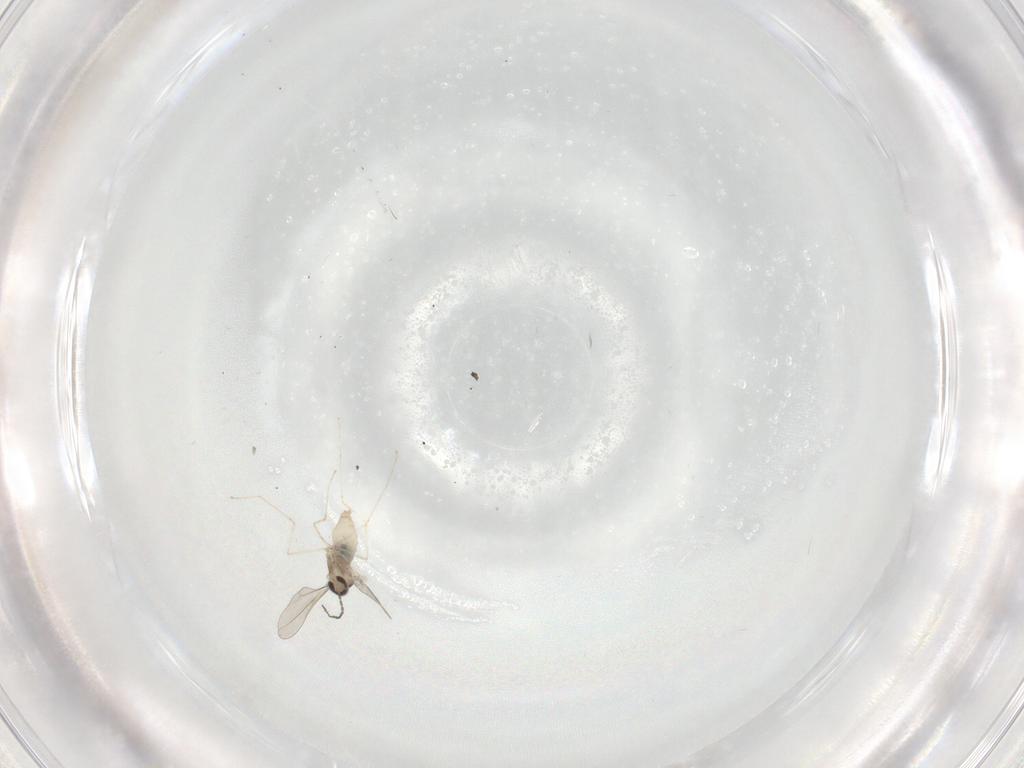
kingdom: Animalia
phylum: Arthropoda
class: Insecta
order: Diptera
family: Cecidomyiidae
